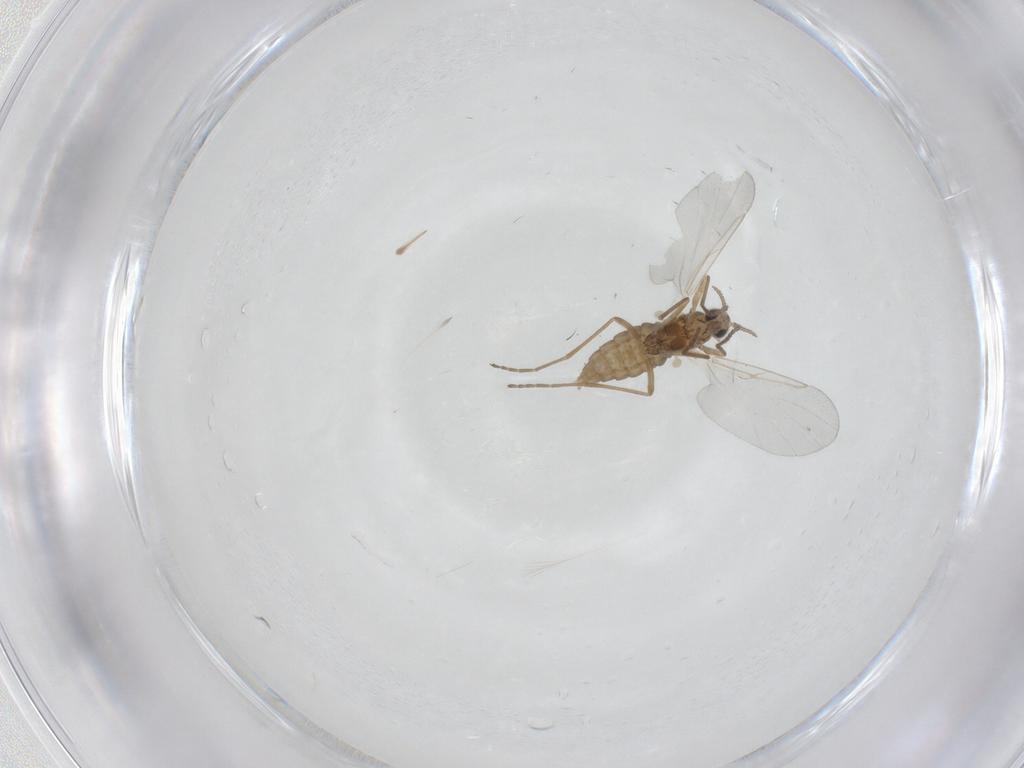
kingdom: Animalia
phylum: Arthropoda
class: Insecta
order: Diptera
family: Cecidomyiidae
